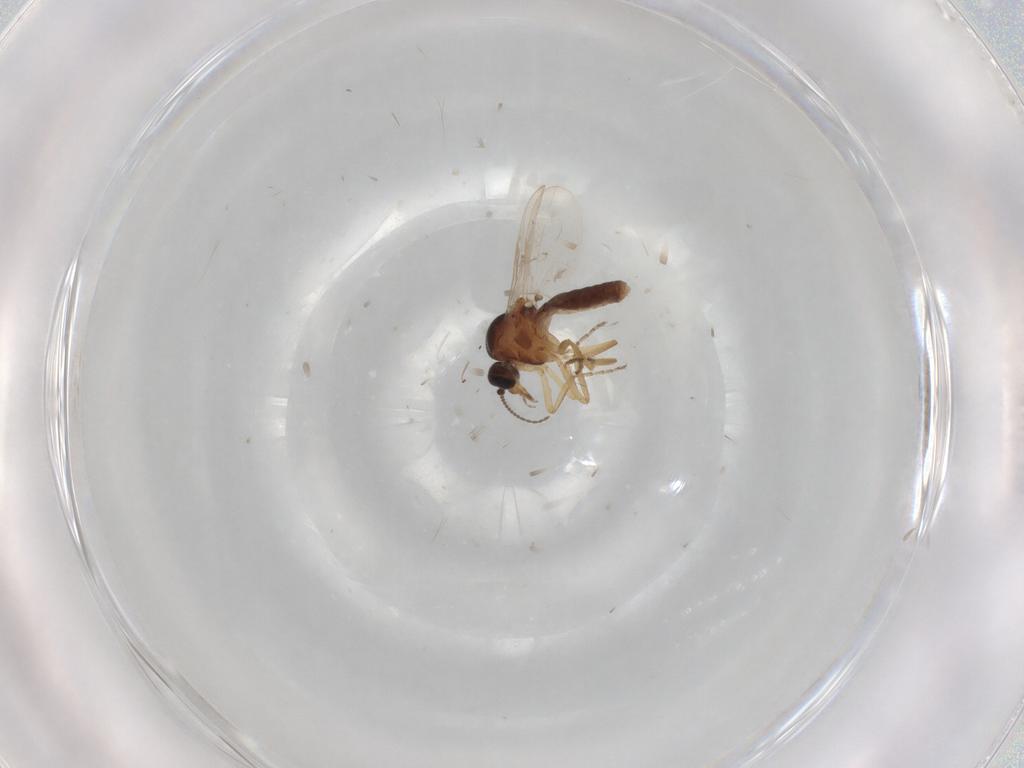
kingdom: Animalia
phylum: Arthropoda
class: Insecta
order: Diptera
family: Ceratopogonidae
